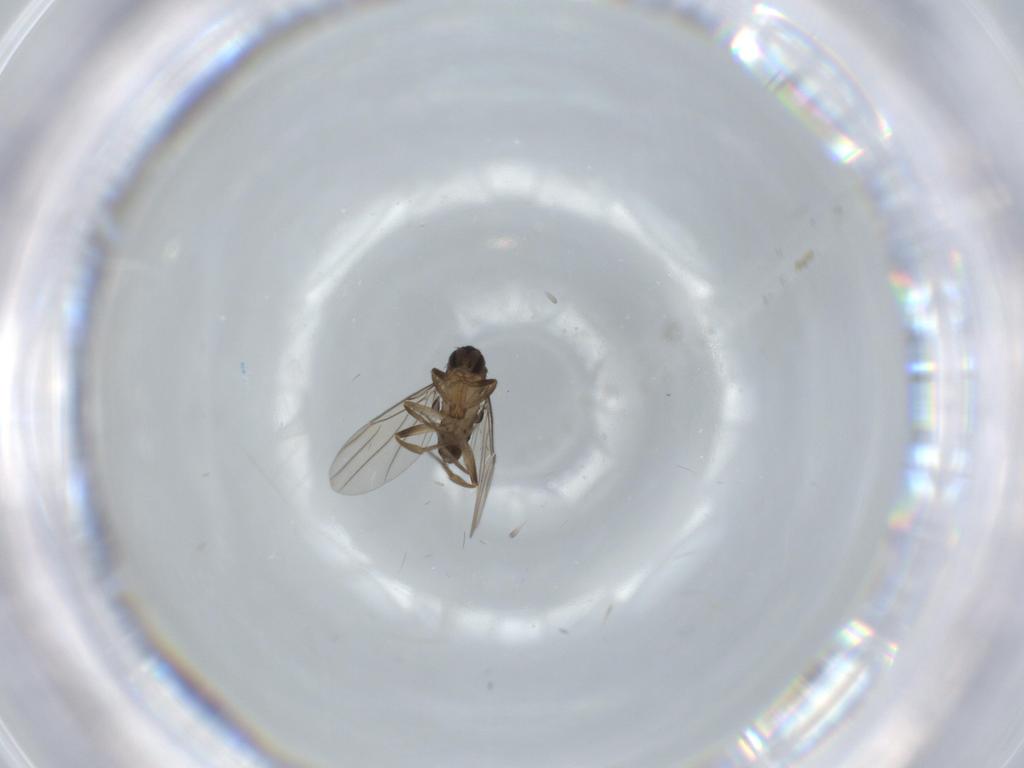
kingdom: Animalia
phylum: Arthropoda
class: Insecta
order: Diptera
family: Phoridae
